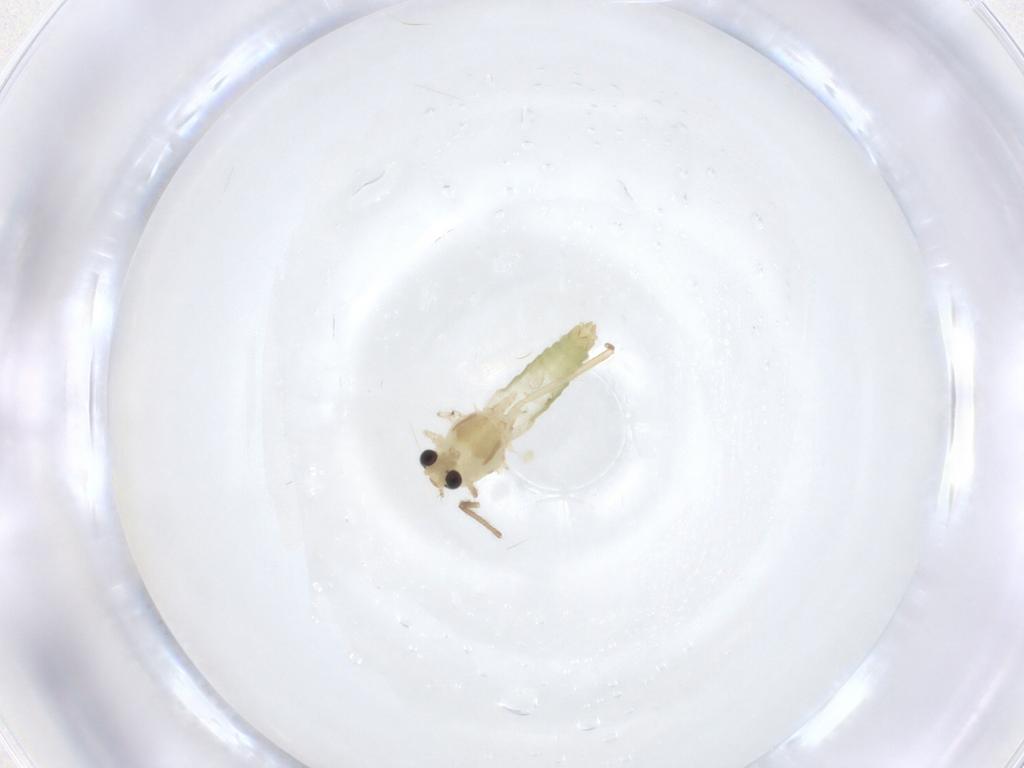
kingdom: Animalia
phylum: Arthropoda
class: Insecta
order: Diptera
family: Chironomidae
